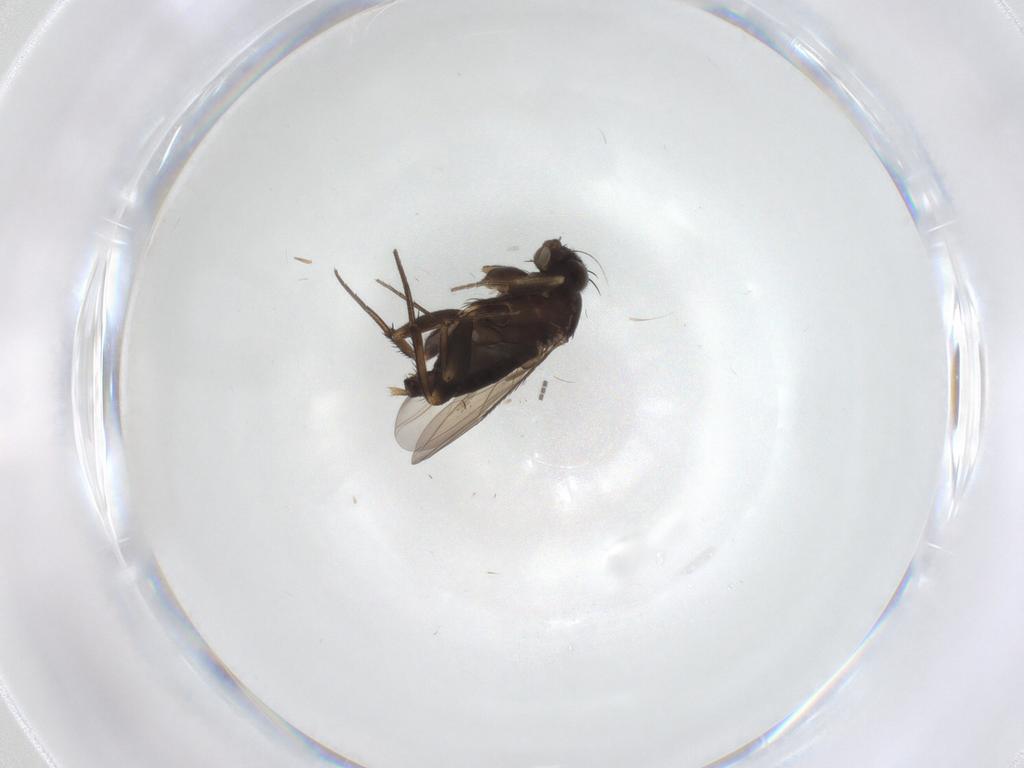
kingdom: Animalia
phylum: Arthropoda
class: Insecta
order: Diptera
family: Phoridae
